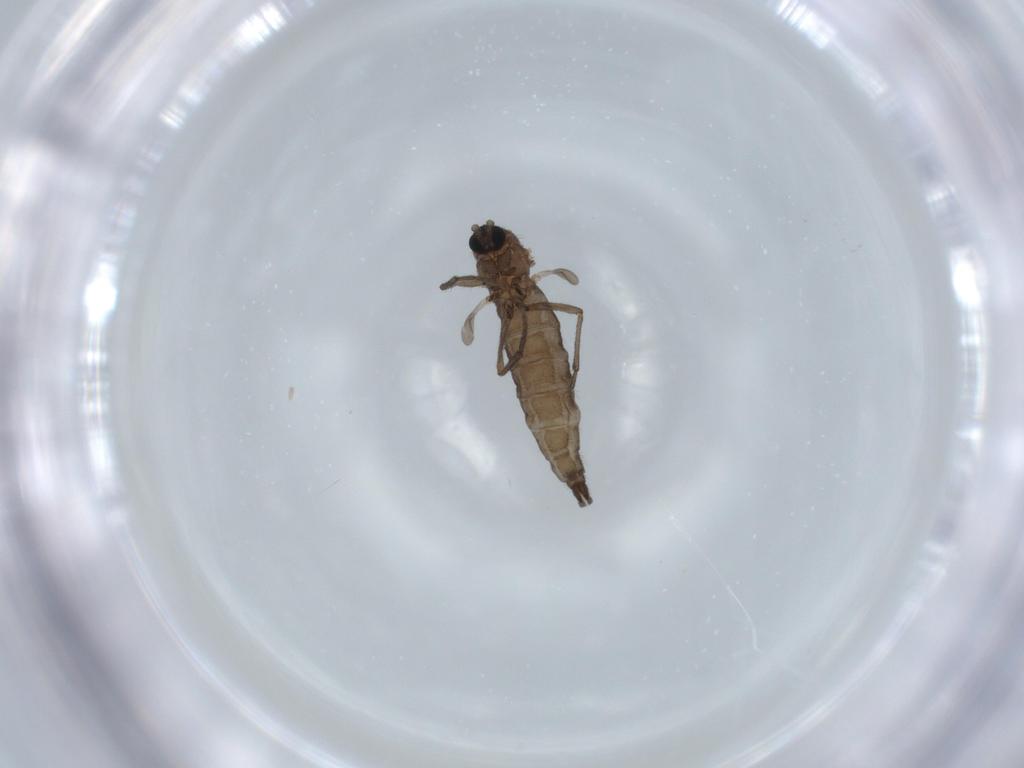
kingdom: Animalia
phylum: Arthropoda
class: Insecta
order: Diptera
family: Sciaridae
